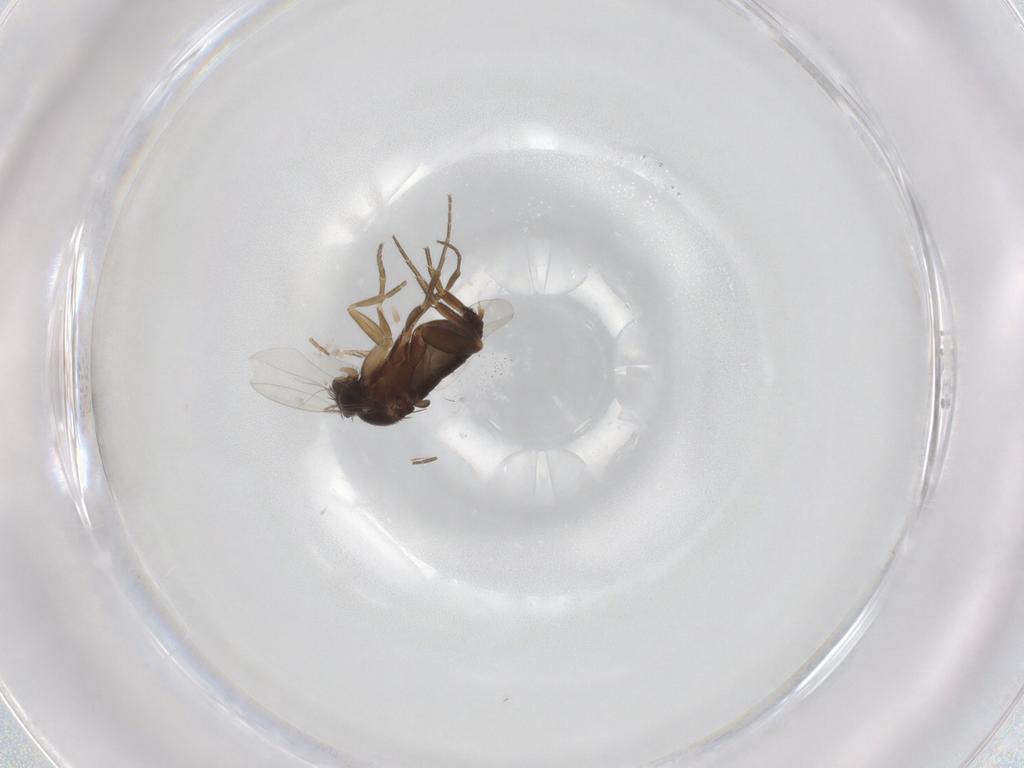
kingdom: Animalia
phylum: Arthropoda
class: Insecta
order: Diptera
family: Phoridae
